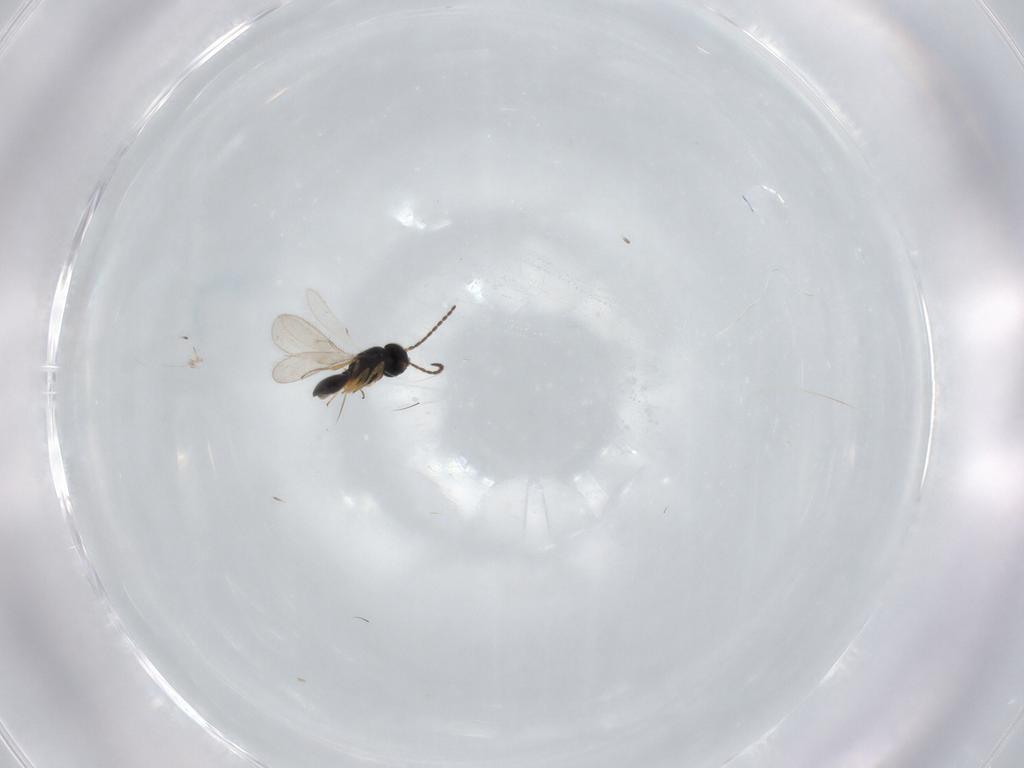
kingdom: Animalia
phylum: Arthropoda
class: Insecta
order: Hymenoptera
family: Scelionidae
